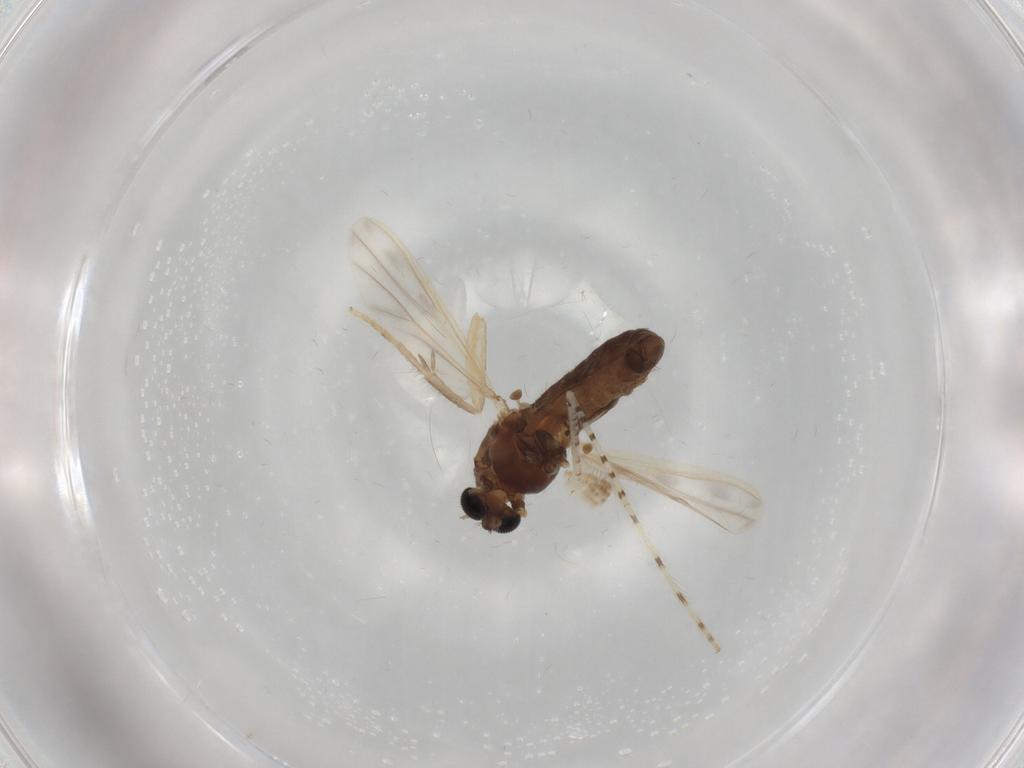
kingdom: Animalia
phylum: Arthropoda
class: Insecta
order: Diptera
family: Chironomidae
